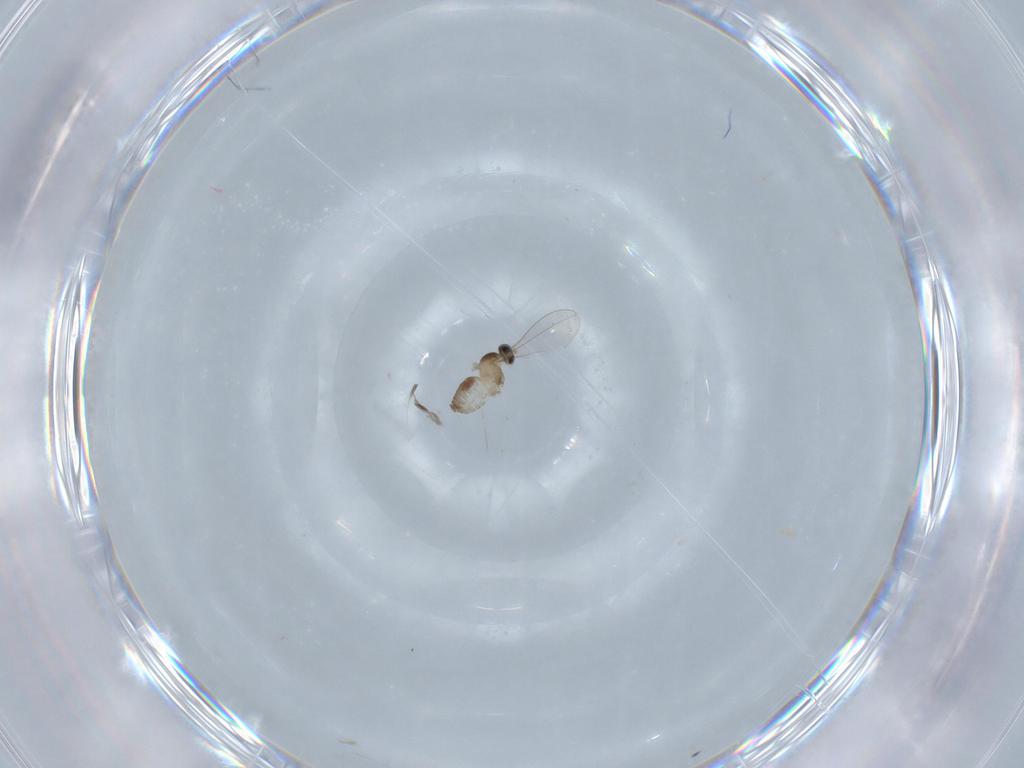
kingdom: Animalia
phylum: Arthropoda
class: Insecta
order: Diptera
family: Cecidomyiidae
